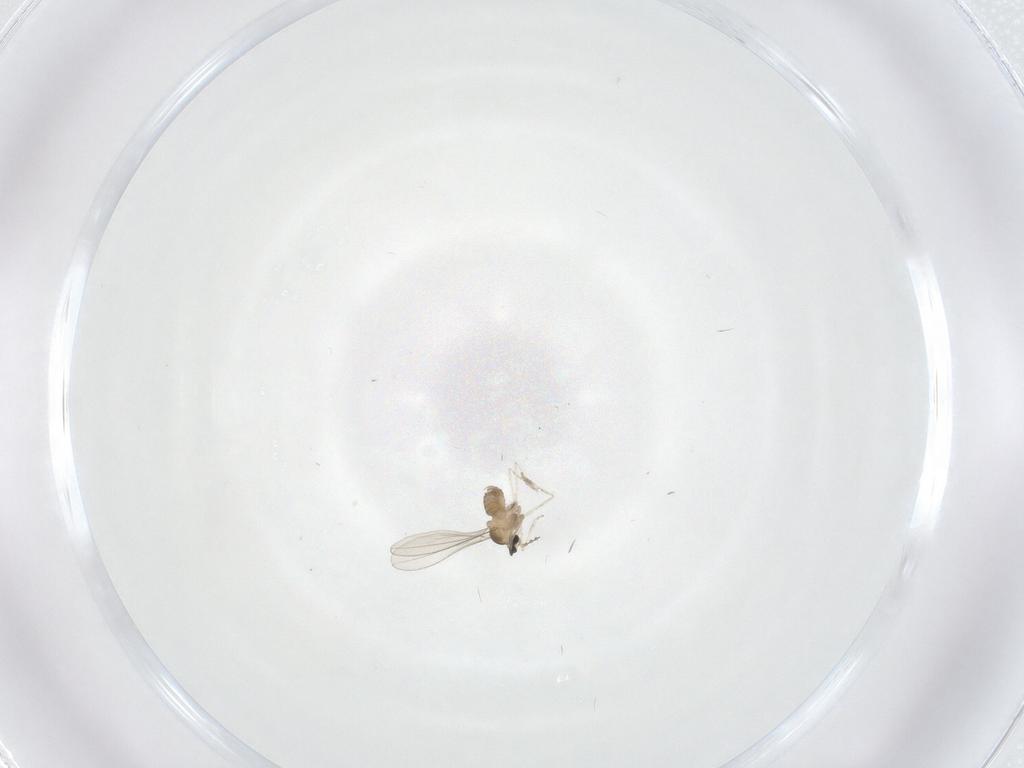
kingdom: Animalia
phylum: Arthropoda
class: Insecta
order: Diptera
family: Cecidomyiidae
